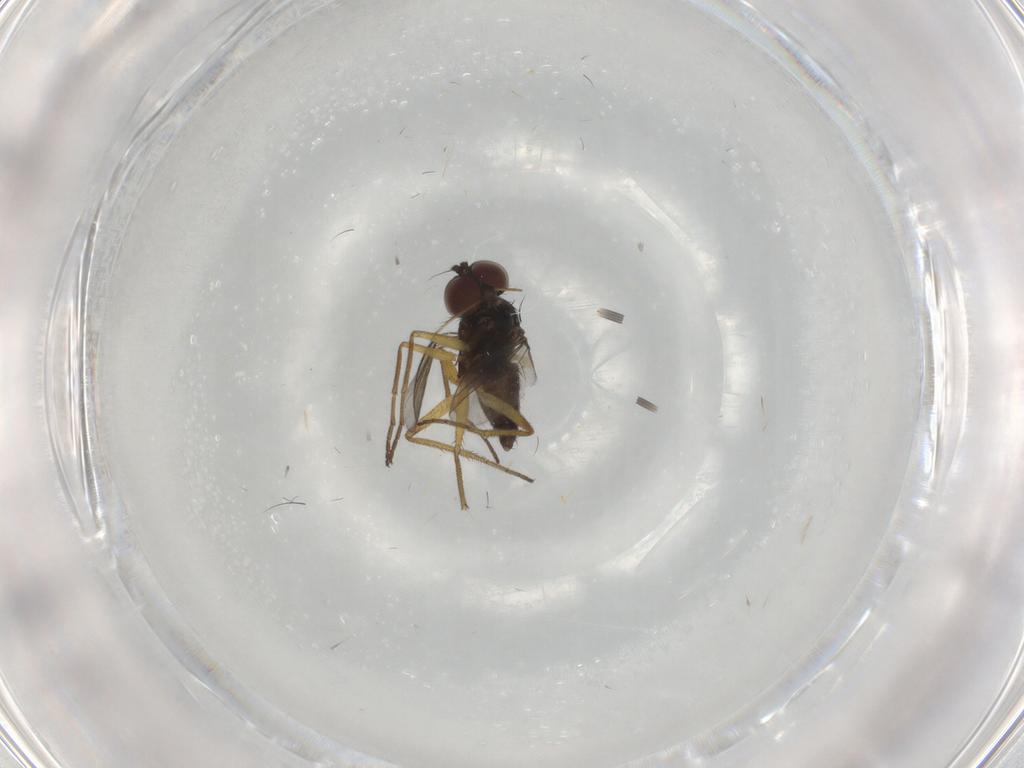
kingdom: Animalia
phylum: Arthropoda
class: Insecta
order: Diptera
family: Dolichopodidae
